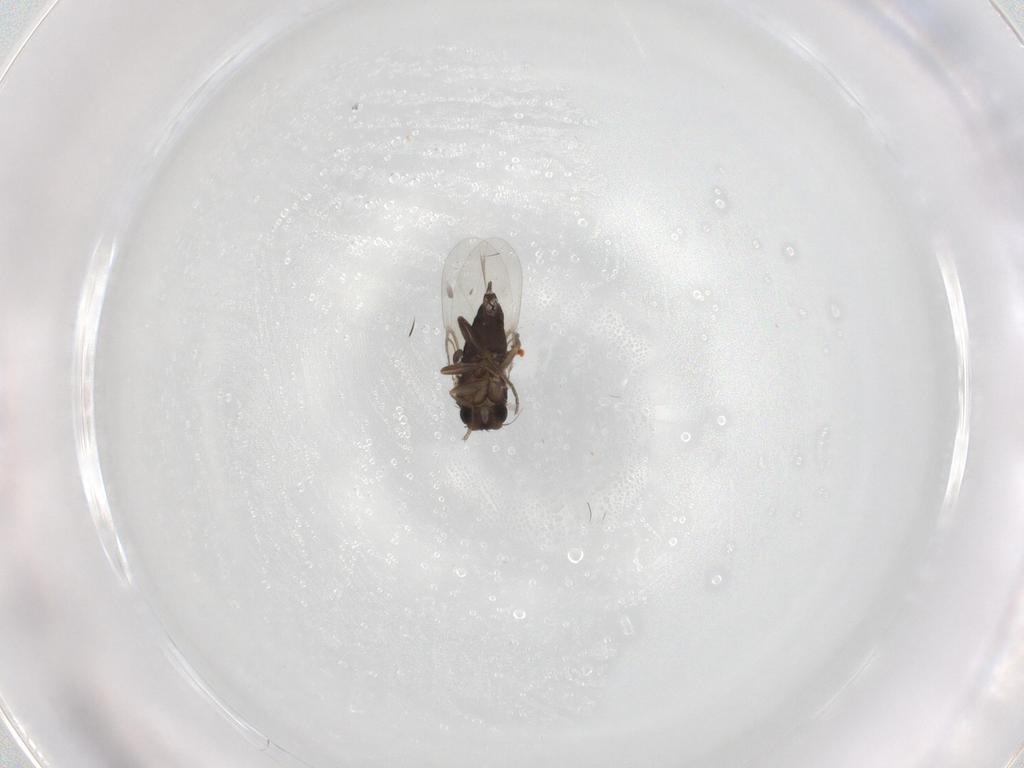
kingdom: Animalia
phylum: Arthropoda
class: Insecta
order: Diptera
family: Phoridae
